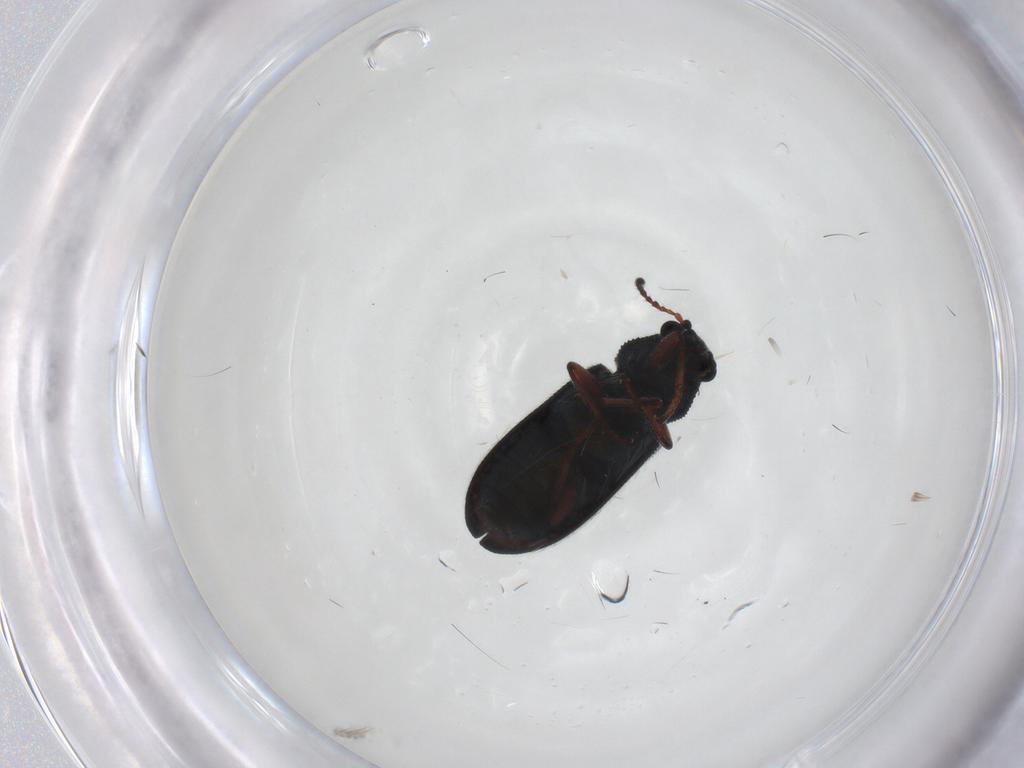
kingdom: Animalia
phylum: Arthropoda
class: Insecta
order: Coleoptera
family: Melyridae
